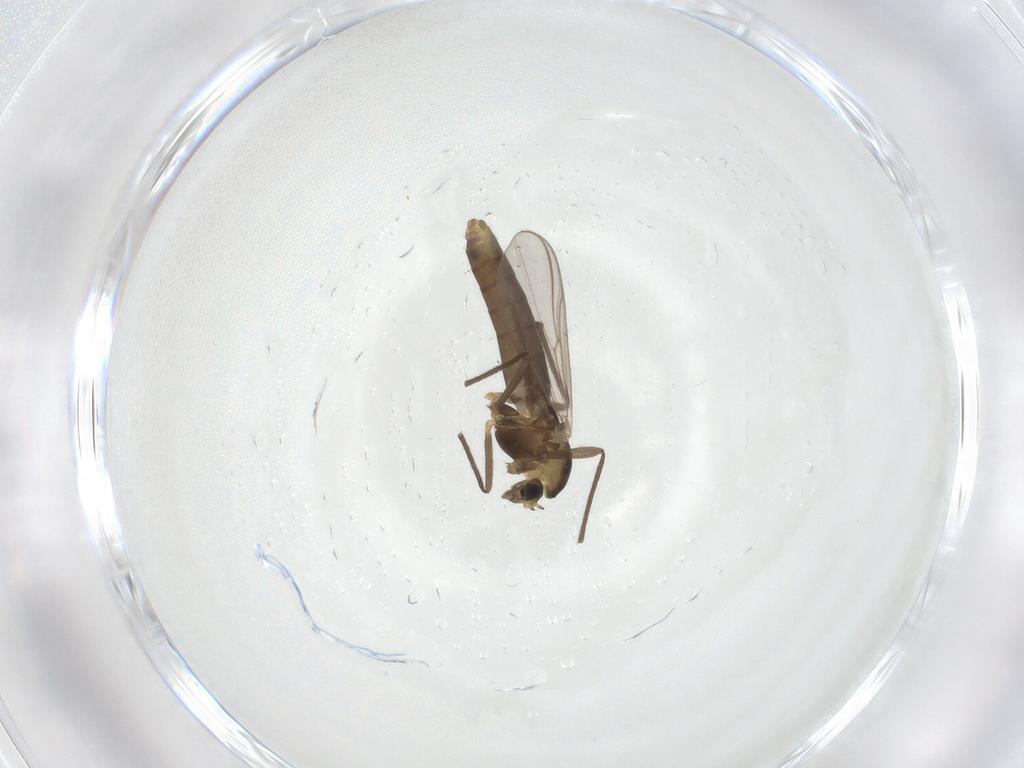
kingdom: Animalia
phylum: Arthropoda
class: Insecta
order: Diptera
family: Chironomidae
